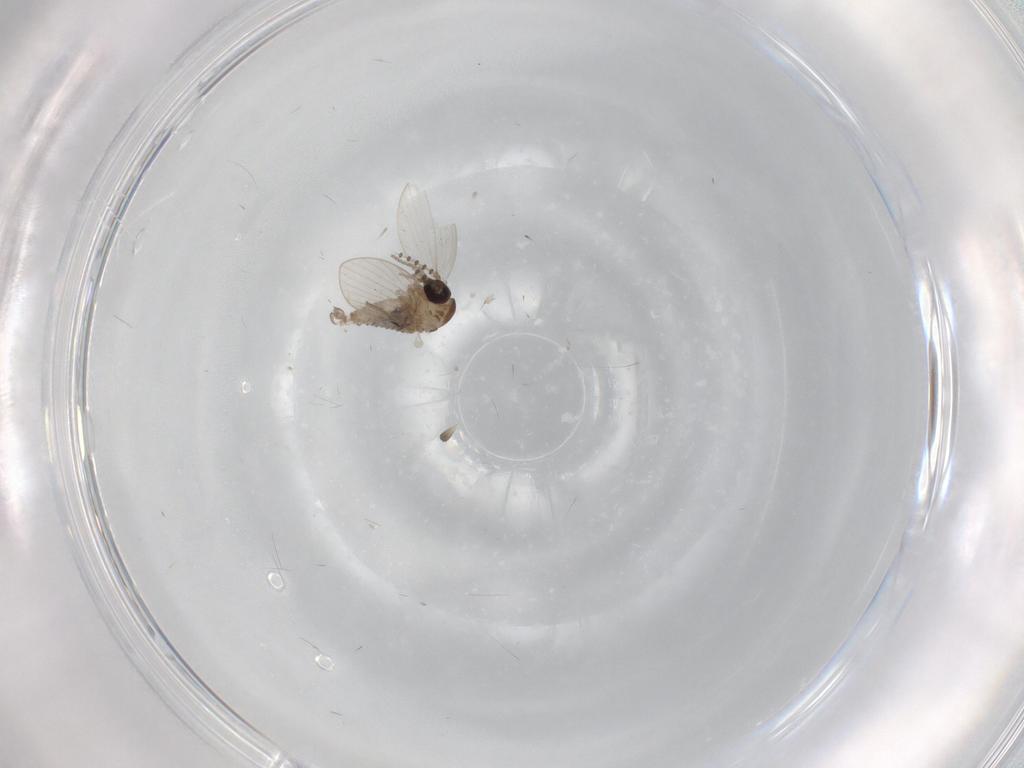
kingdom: Animalia
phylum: Arthropoda
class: Insecta
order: Diptera
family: Psychodidae
